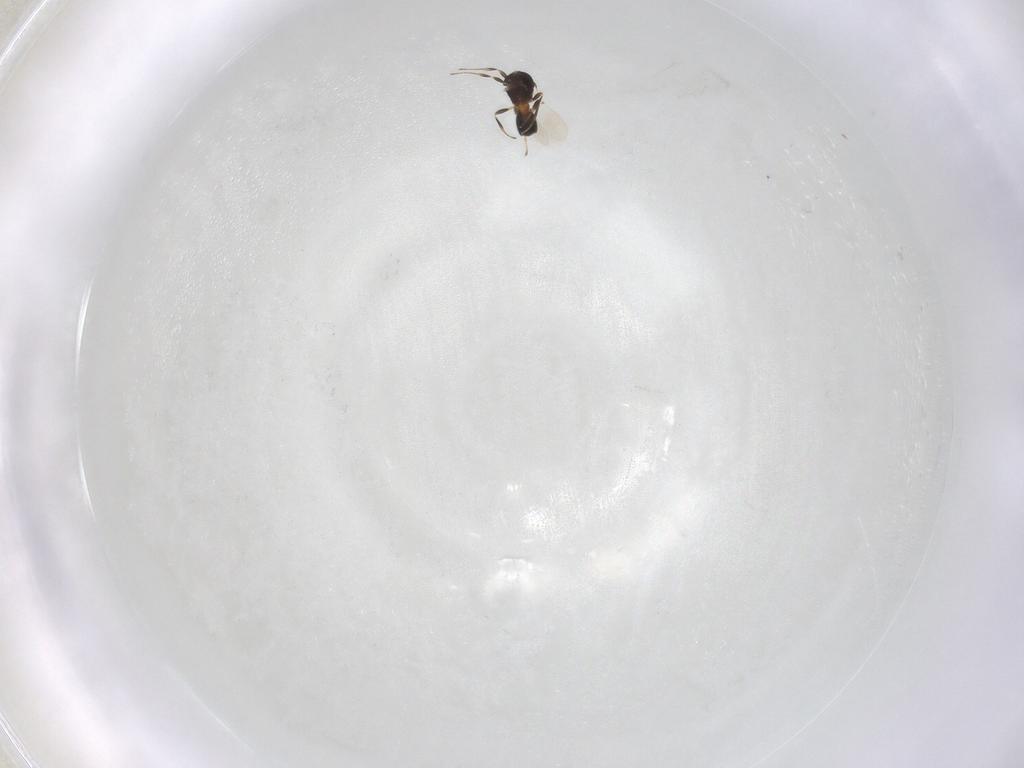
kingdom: Animalia
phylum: Arthropoda
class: Insecta
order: Hymenoptera
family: Platygastridae
